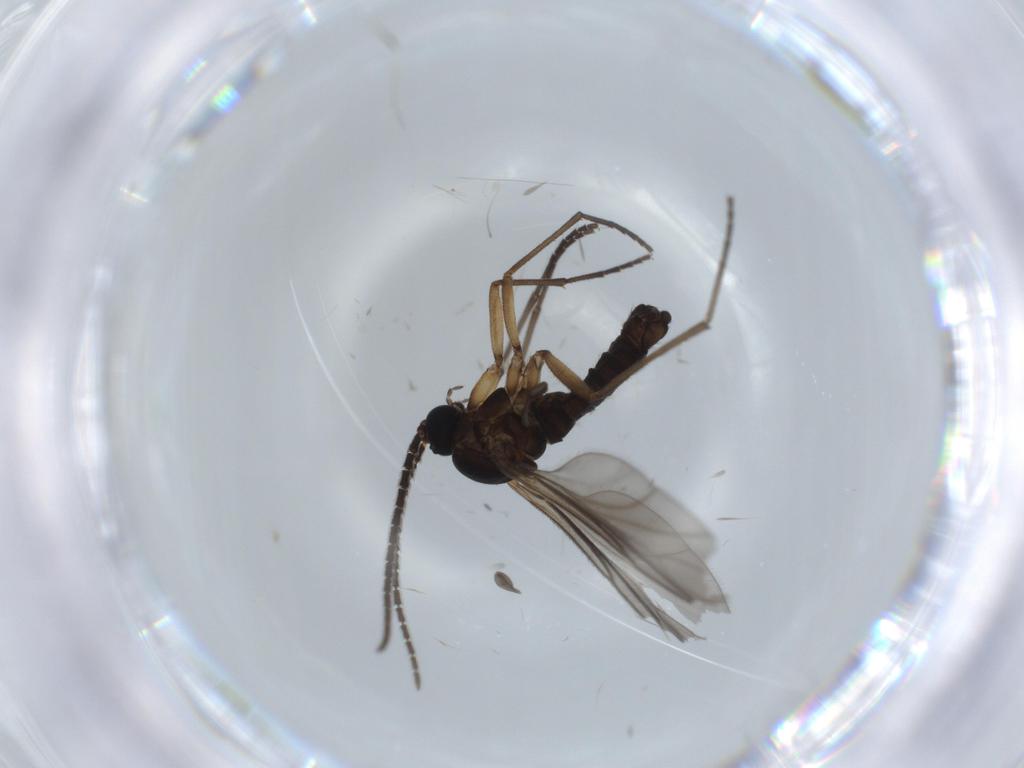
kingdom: Animalia
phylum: Arthropoda
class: Insecta
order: Diptera
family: Sciaridae
